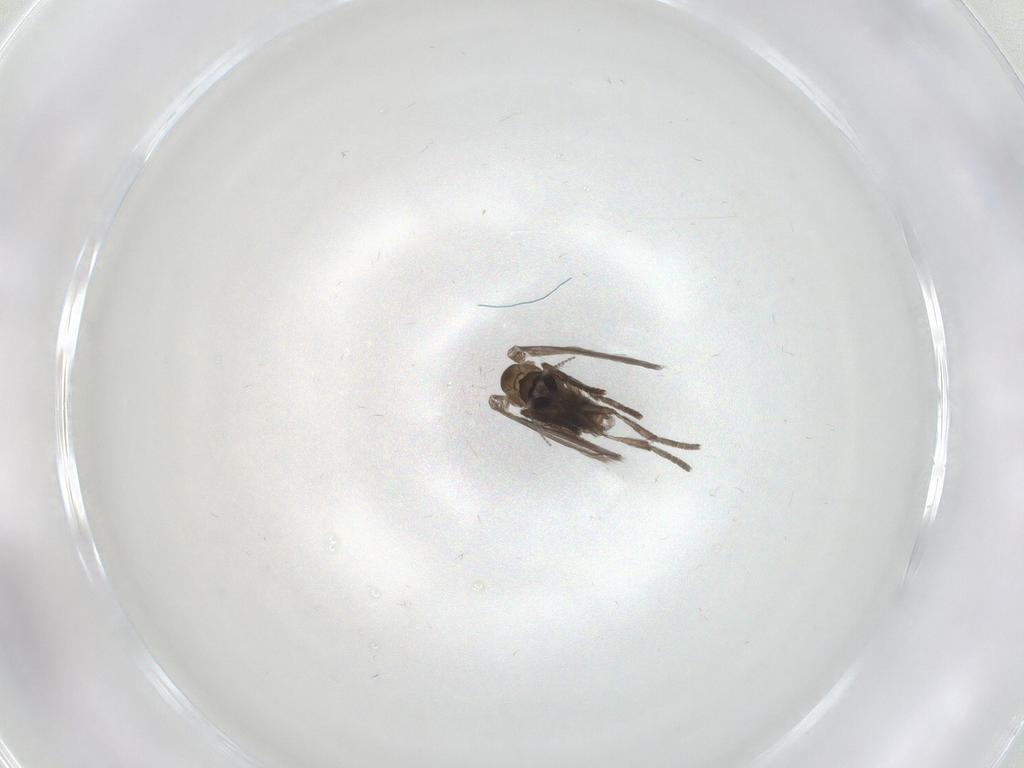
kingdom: Animalia
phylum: Arthropoda
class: Insecta
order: Diptera
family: Psychodidae
